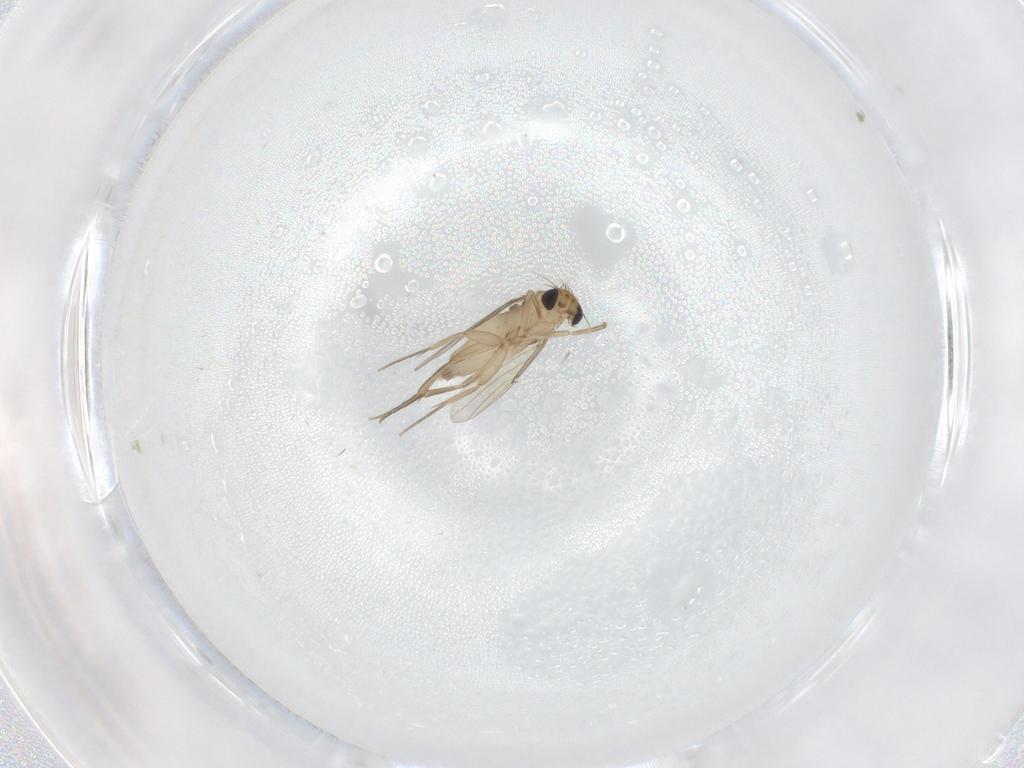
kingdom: Animalia
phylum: Arthropoda
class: Insecta
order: Diptera
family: Phoridae
